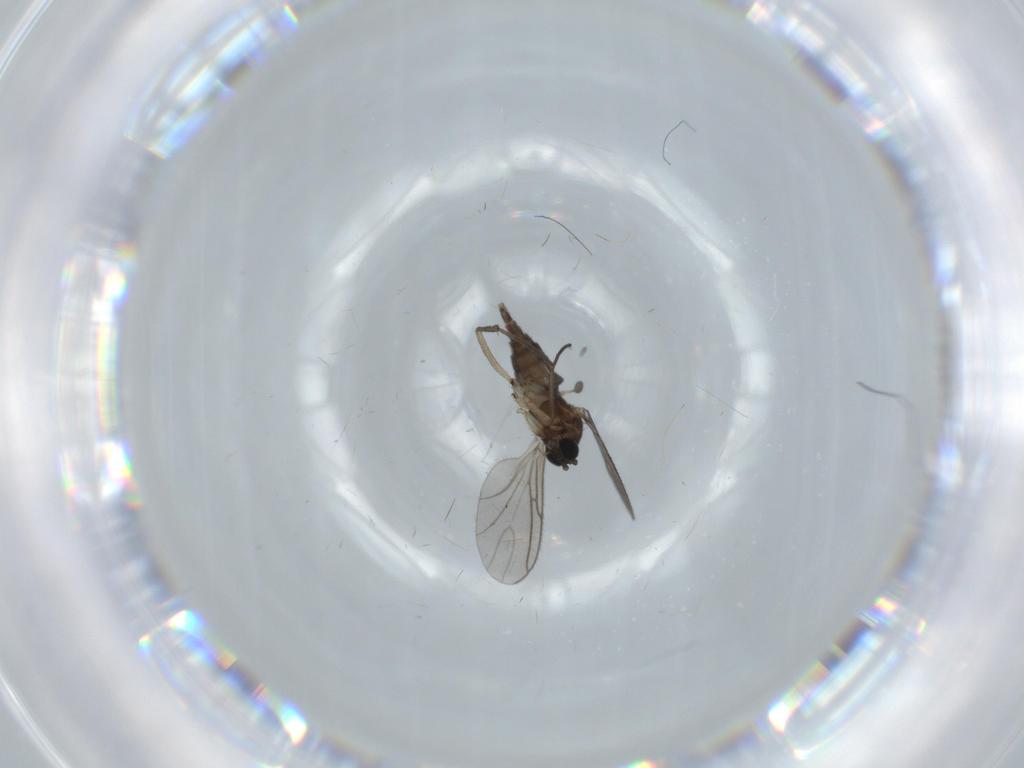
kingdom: Animalia
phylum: Arthropoda
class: Insecta
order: Diptera
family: Sciaridae
